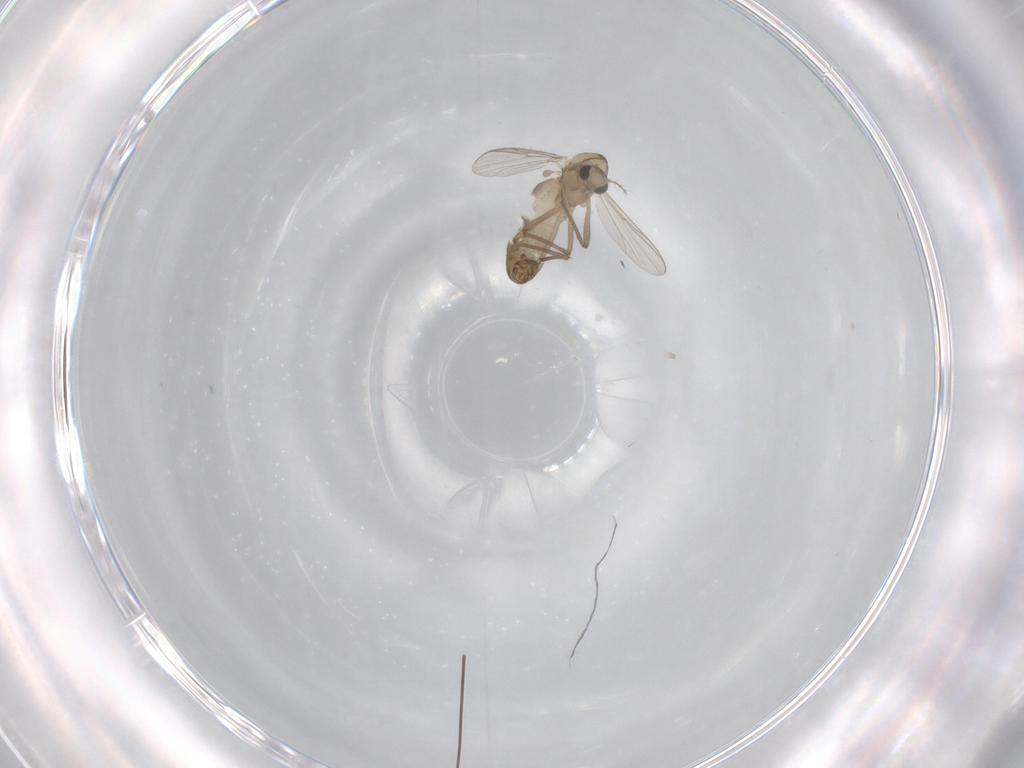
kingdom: Animalia
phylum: Arthropoda
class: Insecta
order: Diptera
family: Chironomidae
